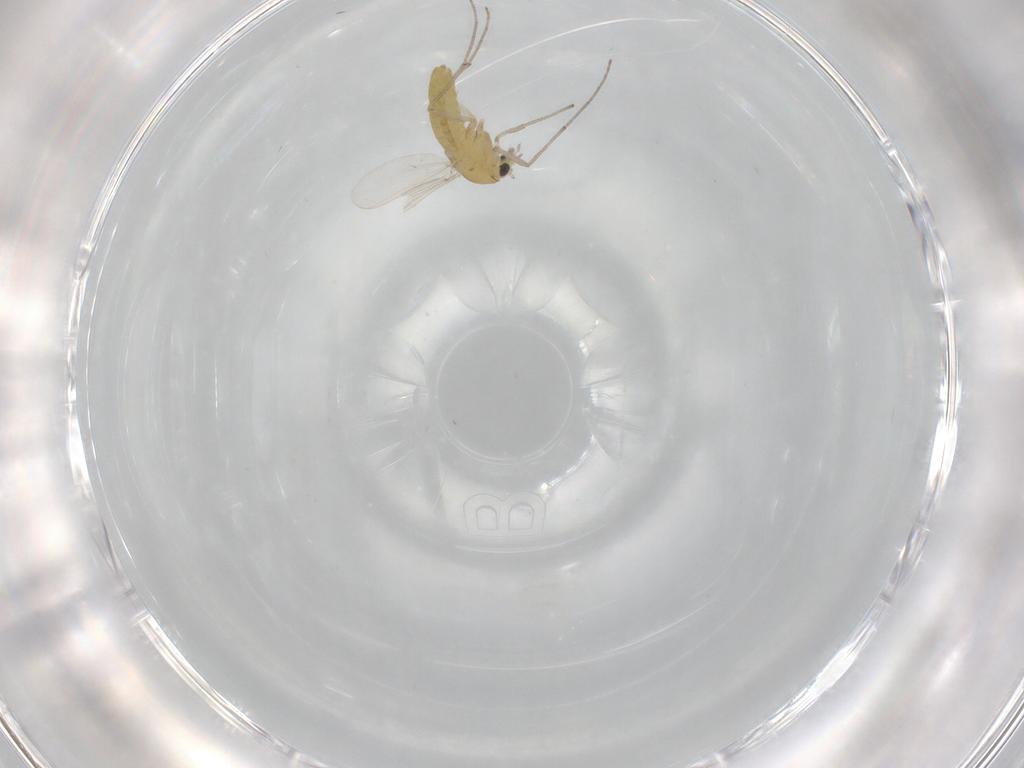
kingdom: Animalia
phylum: Arthropoda
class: Insecta
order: Diptera
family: Chironomidae
